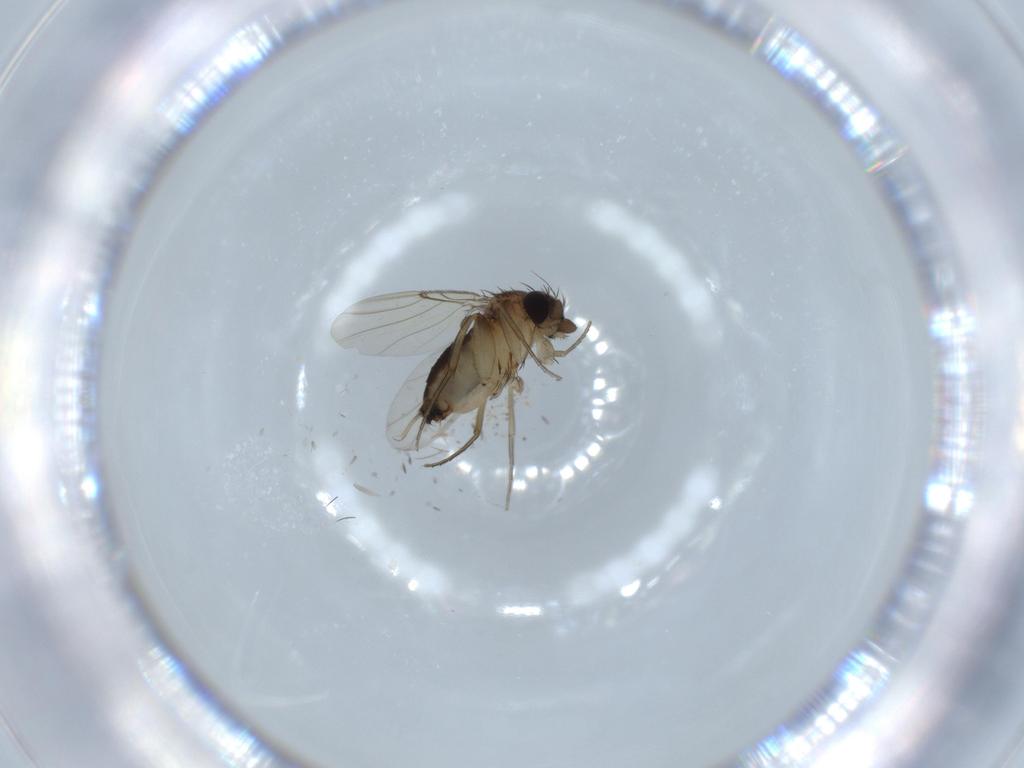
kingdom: Animalia
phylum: Arthropoda
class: Insecta
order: Diptera
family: Phoridae
